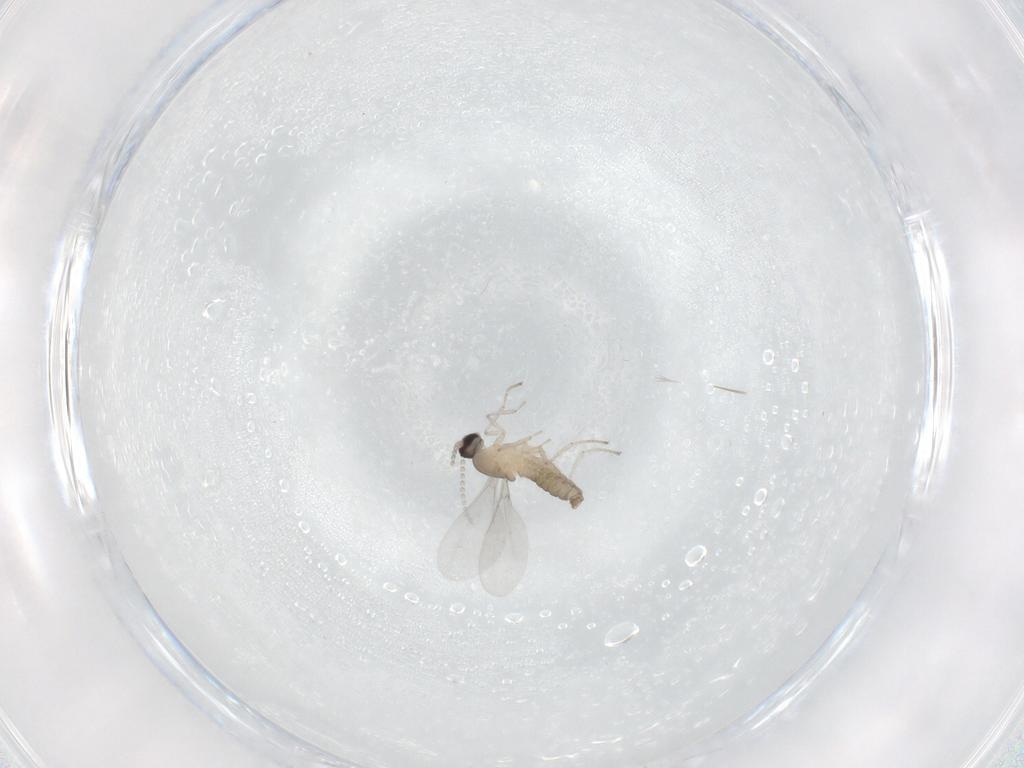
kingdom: Animalia
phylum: Arthropoda
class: Insecta
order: Diptera
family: Cecidomyiidae
